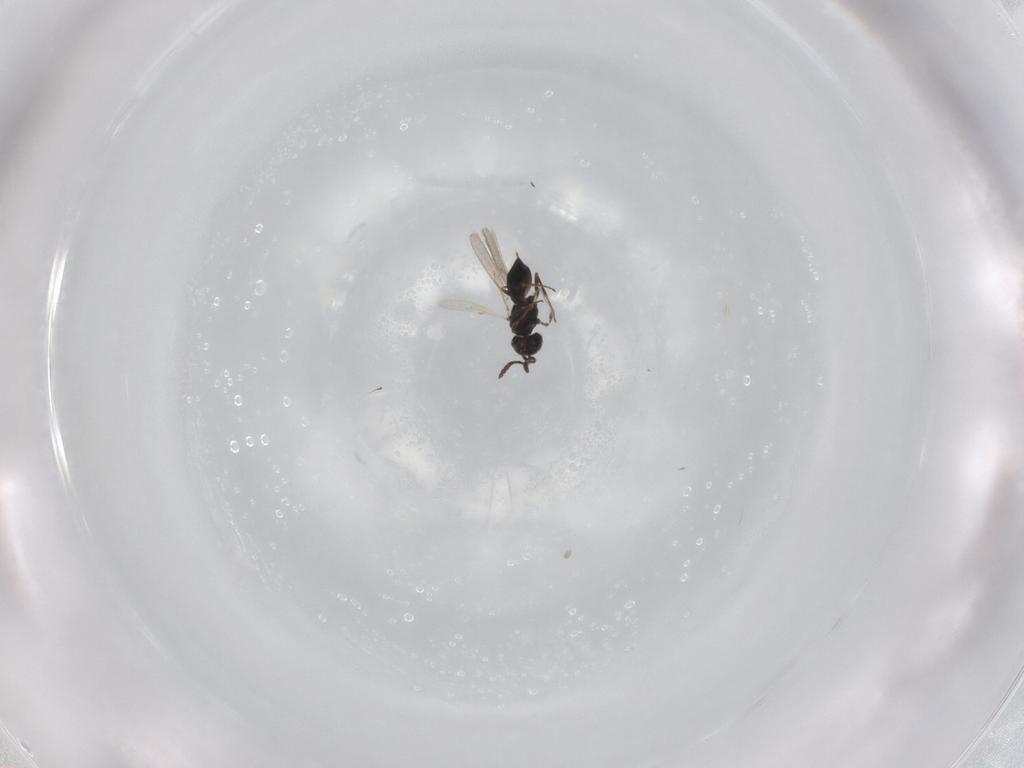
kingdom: Animalia
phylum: Arthropoda
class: Insecta
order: Hymenoptera
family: Scelionidae
